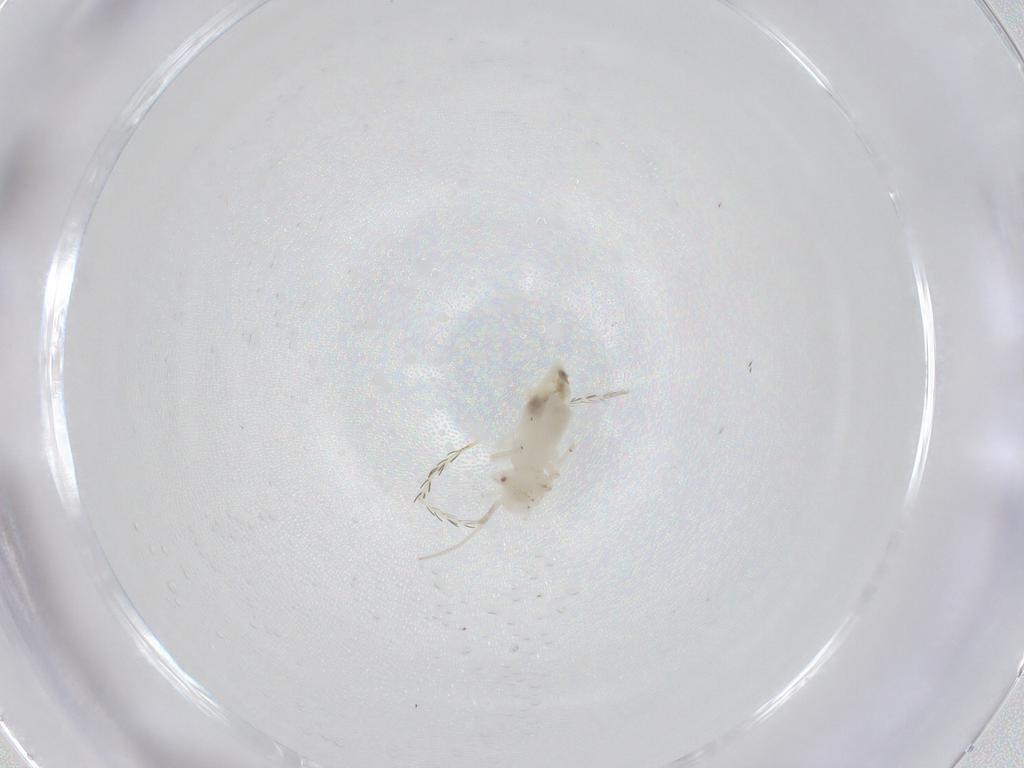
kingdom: Animalia
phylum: Arthropoda
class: Insecta
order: Psocodea
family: Caeciliusidae
